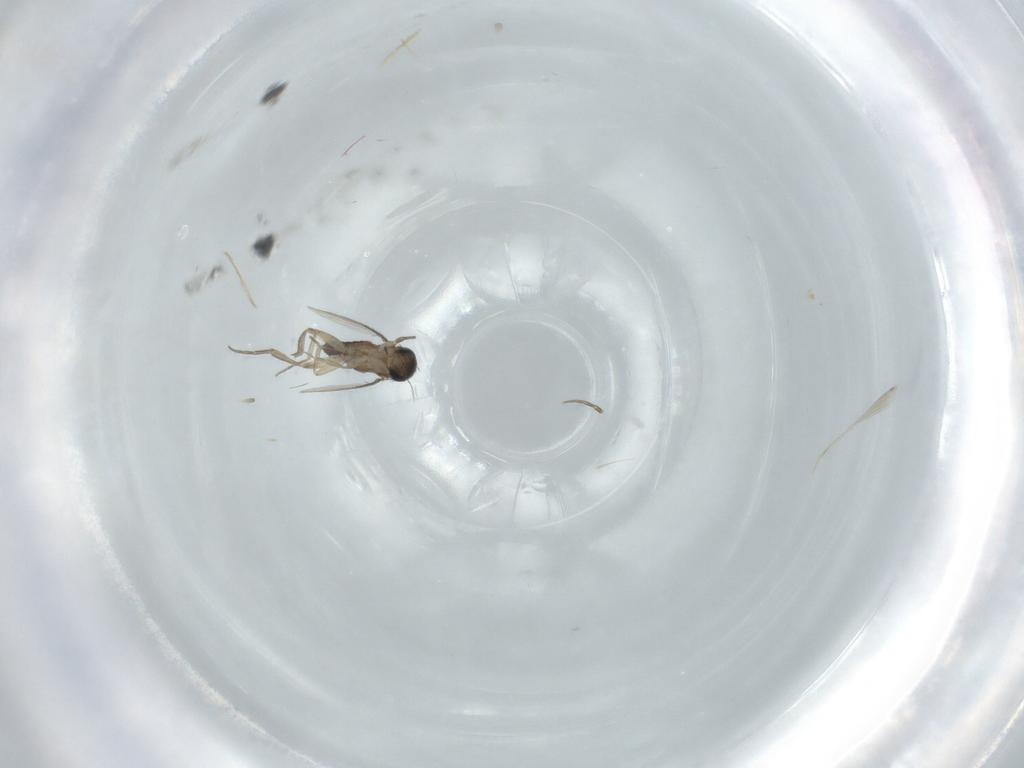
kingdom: Animalia
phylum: Arthropoda
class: Insecta
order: Diptera
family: Phoridae
